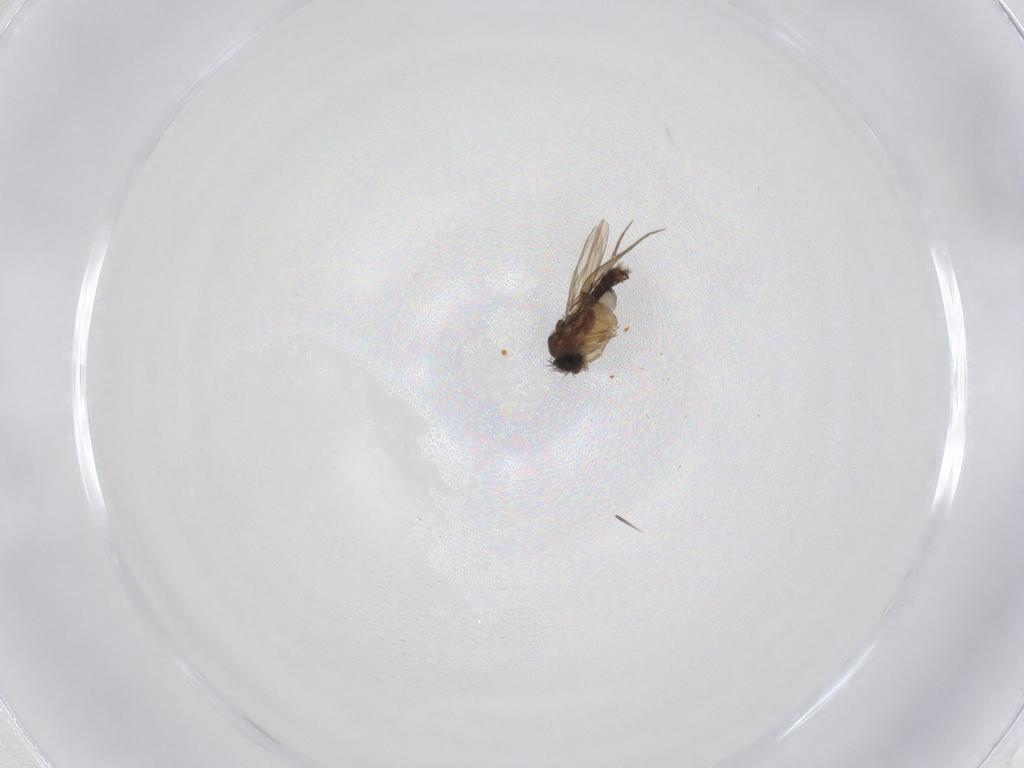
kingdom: Animalia
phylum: Arthropoda
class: Insecta
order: Diptera
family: Phoridae
